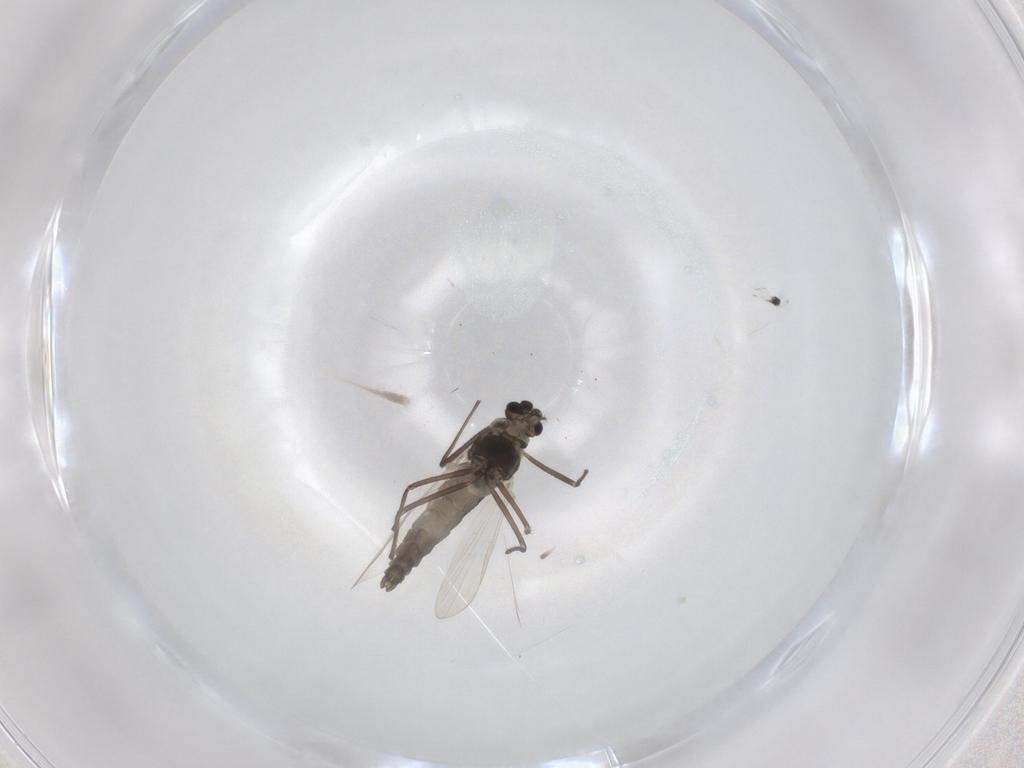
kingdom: Animalia
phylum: Arthropoda
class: Insecta
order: Diptera
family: Chironomidae
